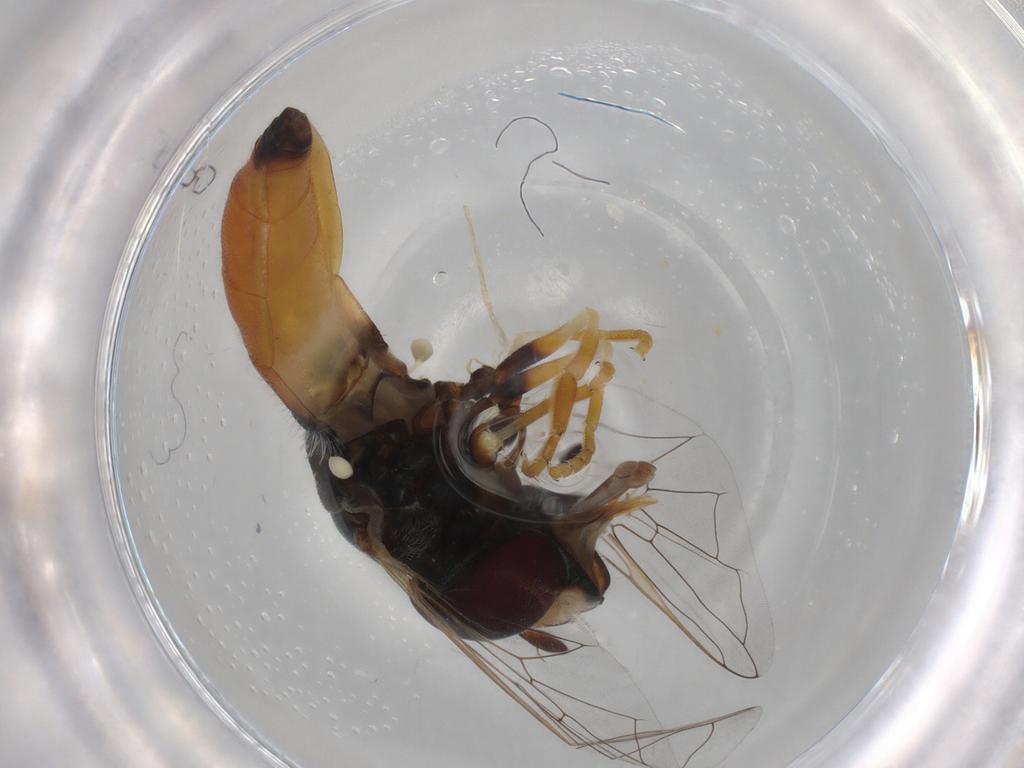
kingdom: Animalia
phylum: Arthropoda
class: Insecta
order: Diptera
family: Syrphidae
